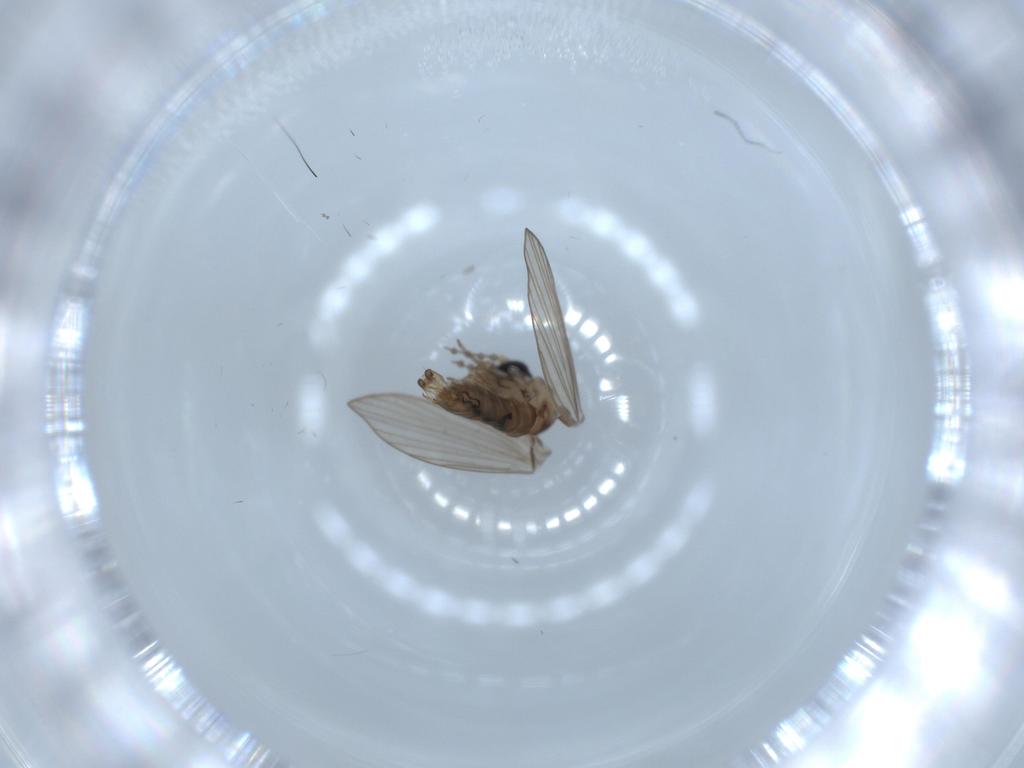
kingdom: Animalia
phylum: Arthropoda
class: Insecta
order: Diptera
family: Psychodidae
